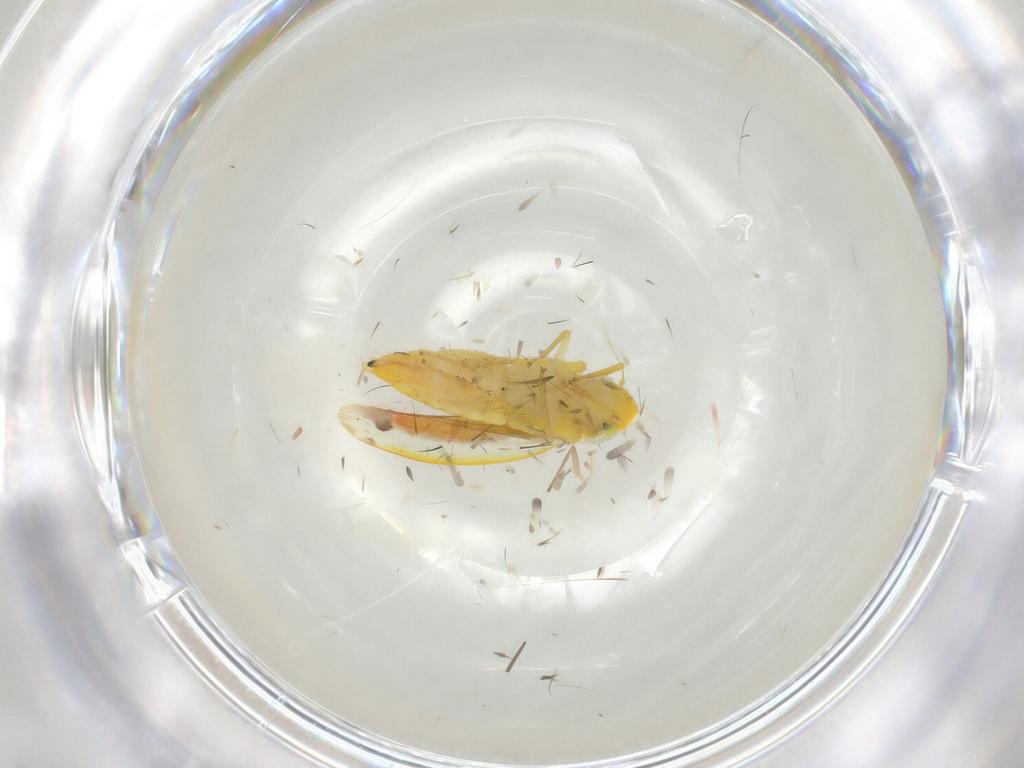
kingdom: Animalia
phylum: Arthropoda
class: Insecta
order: Hemiptera
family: Cicadellidae
